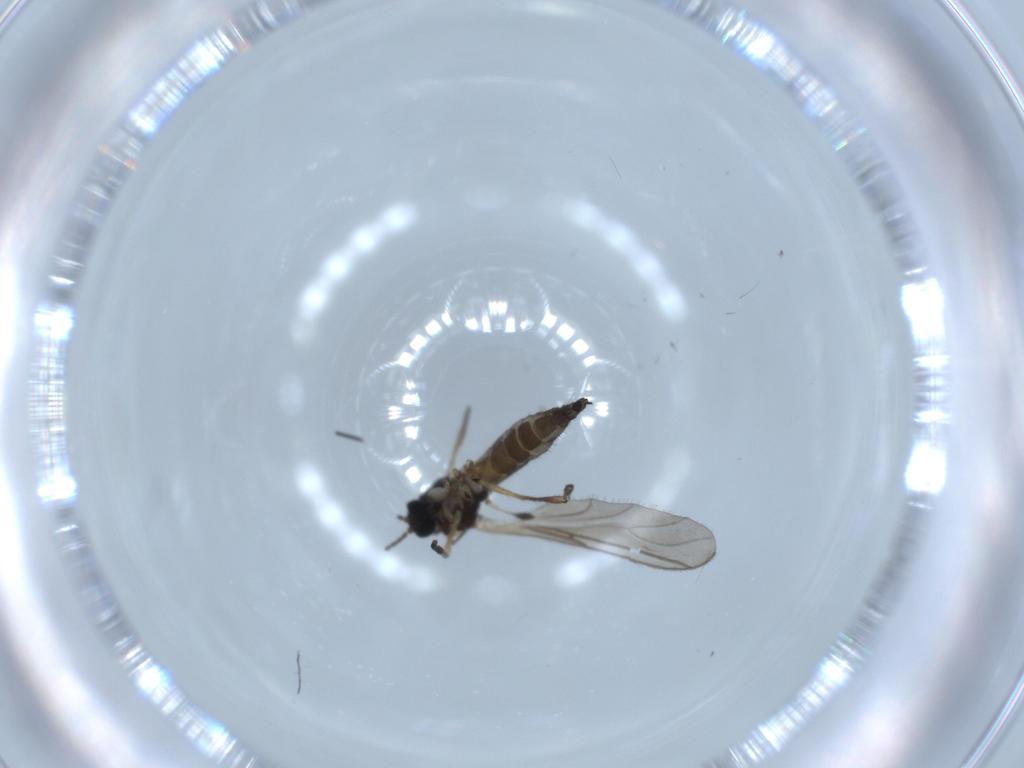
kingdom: Animalia
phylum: Arthropoda
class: Insecta
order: Diptera
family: Sciaridae
